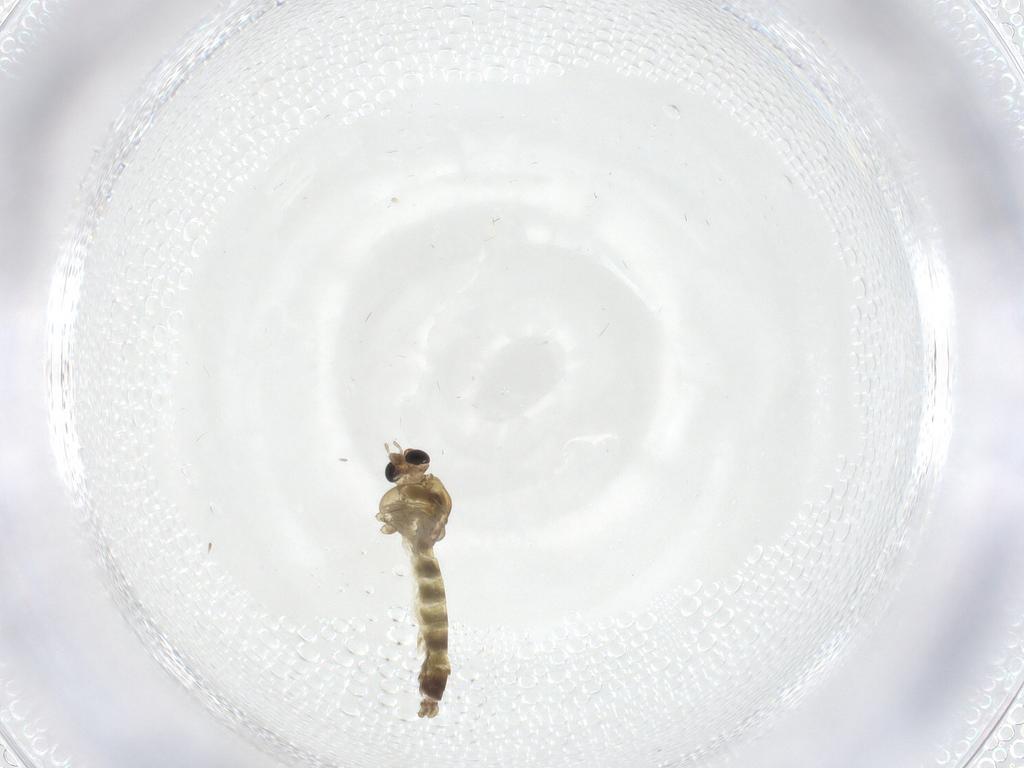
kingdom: Animalia
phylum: Arthropoda
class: Insecta
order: Diptera
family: Chironomidae
